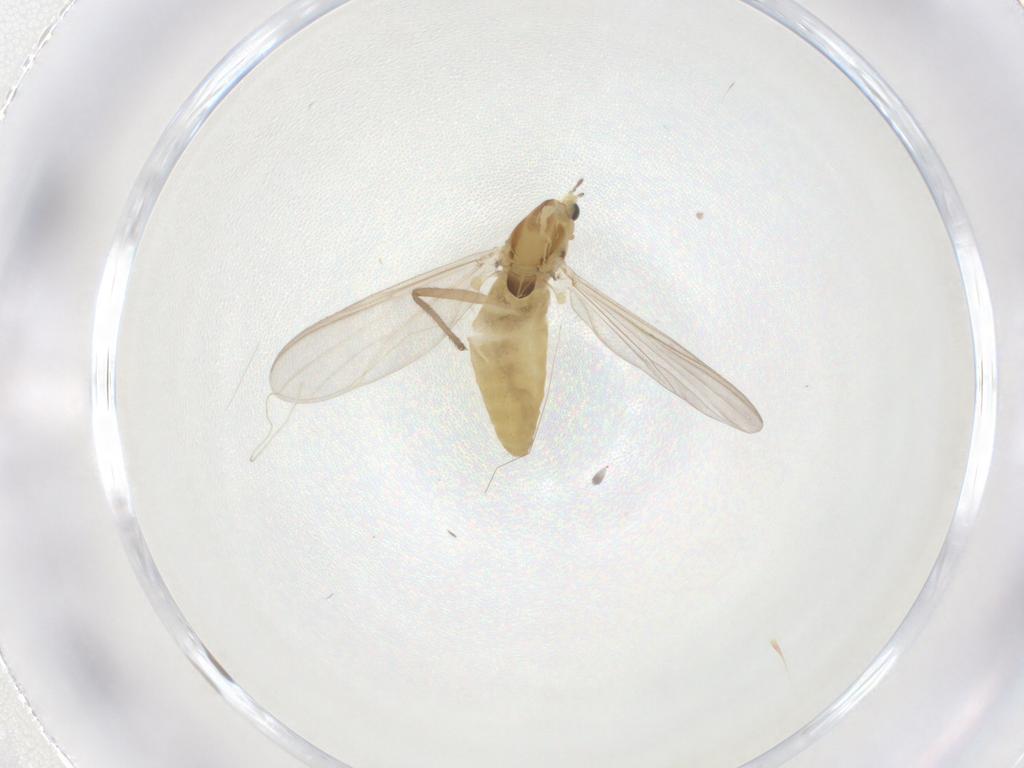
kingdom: Animalia
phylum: Arthropoda
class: Insecta
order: Diptera
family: Chironomidae
